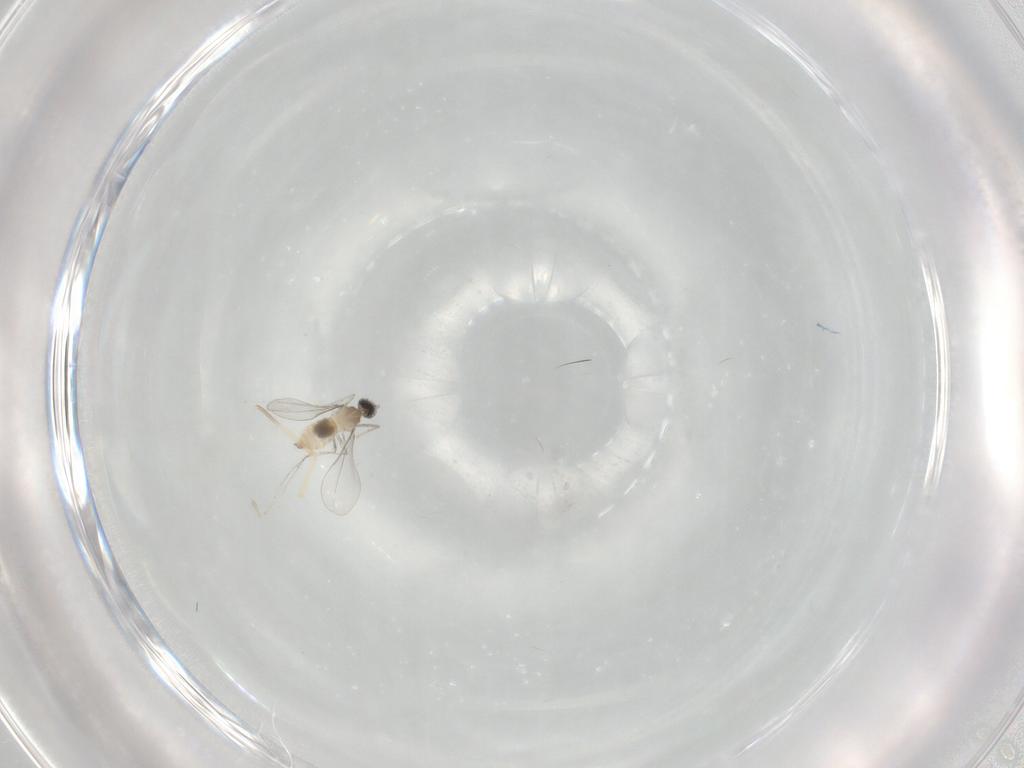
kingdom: Animalia
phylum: Arthropoda
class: Insecta
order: Diptera
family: Cecidomyiidae
